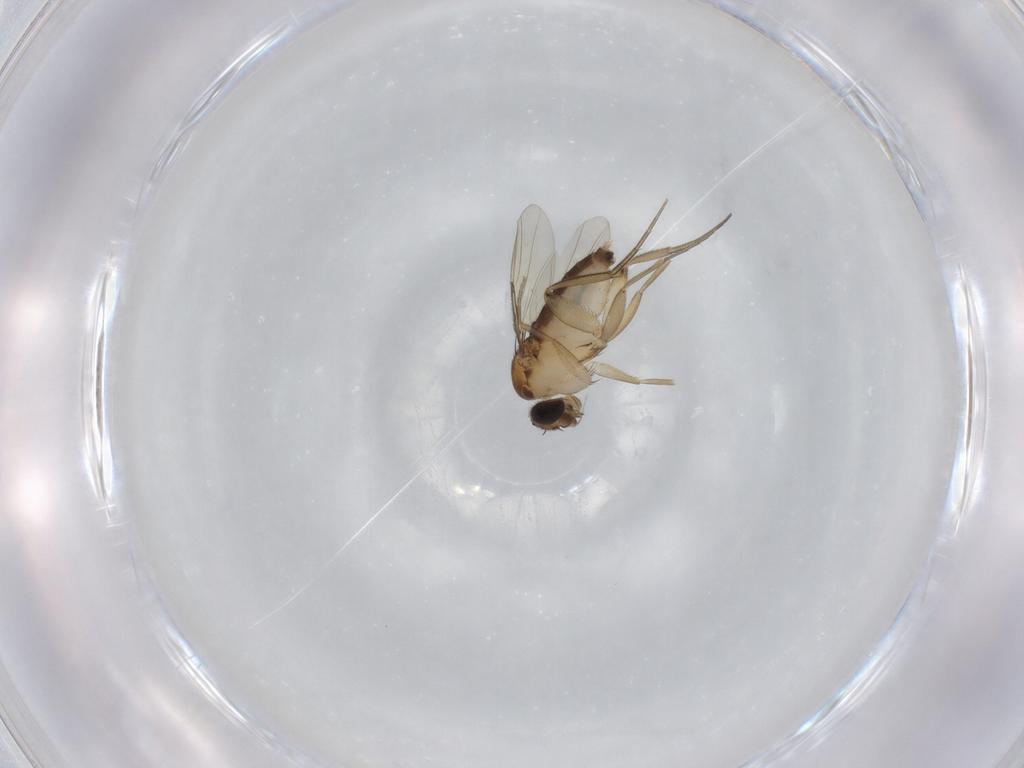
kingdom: Animalia
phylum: Arthropoda
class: Insecta
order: Diptera
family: Phoridae
